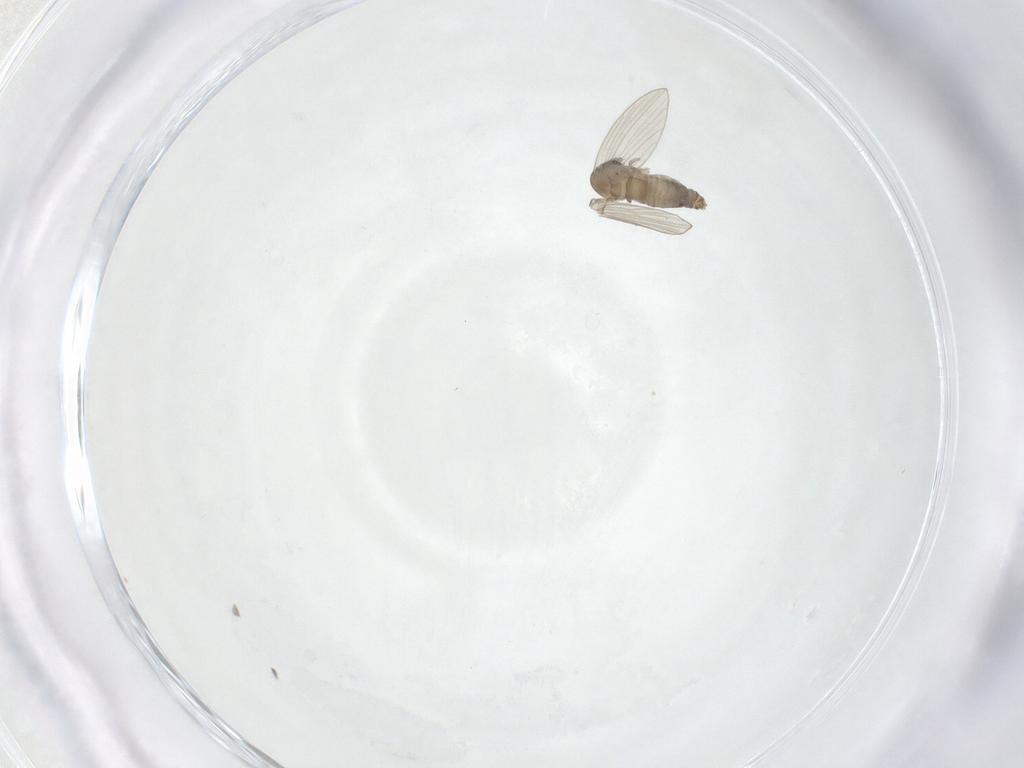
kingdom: Animalia
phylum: Arthropoda
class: Insecta
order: Diptera
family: Calliphoridae
